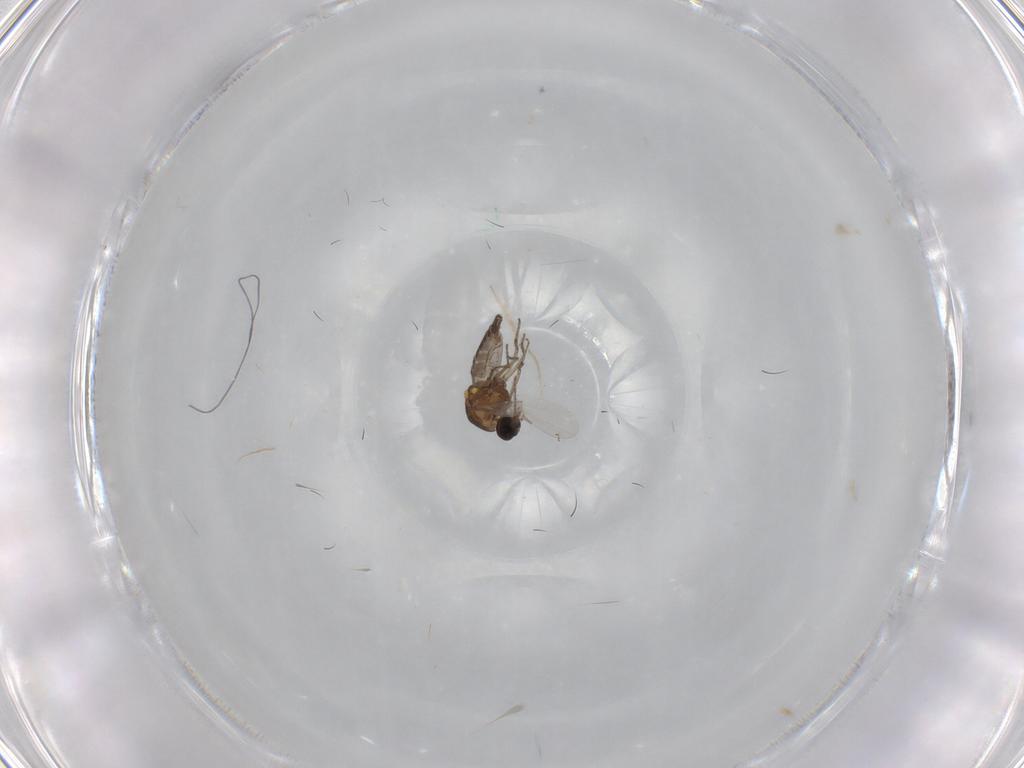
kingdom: Animalia
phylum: Arthropoda
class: Insecta
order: Diptera
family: Ceratopogonidae
